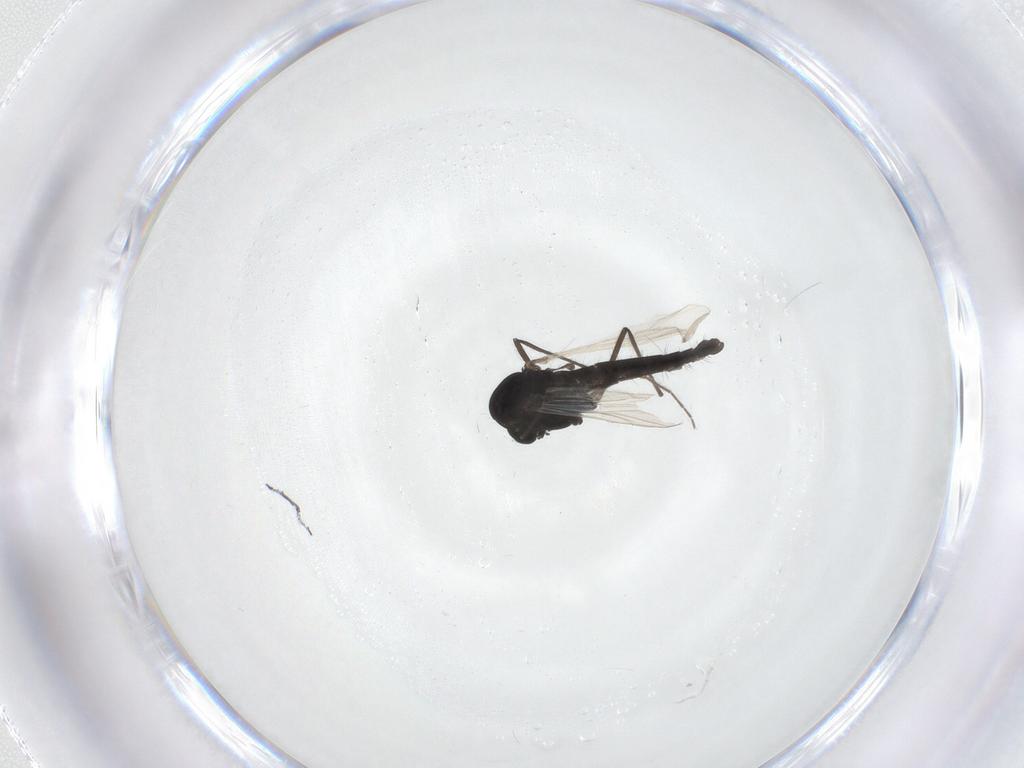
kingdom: Animalia
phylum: Arthropoda
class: Insecta
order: Diptera
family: Chironomidae
